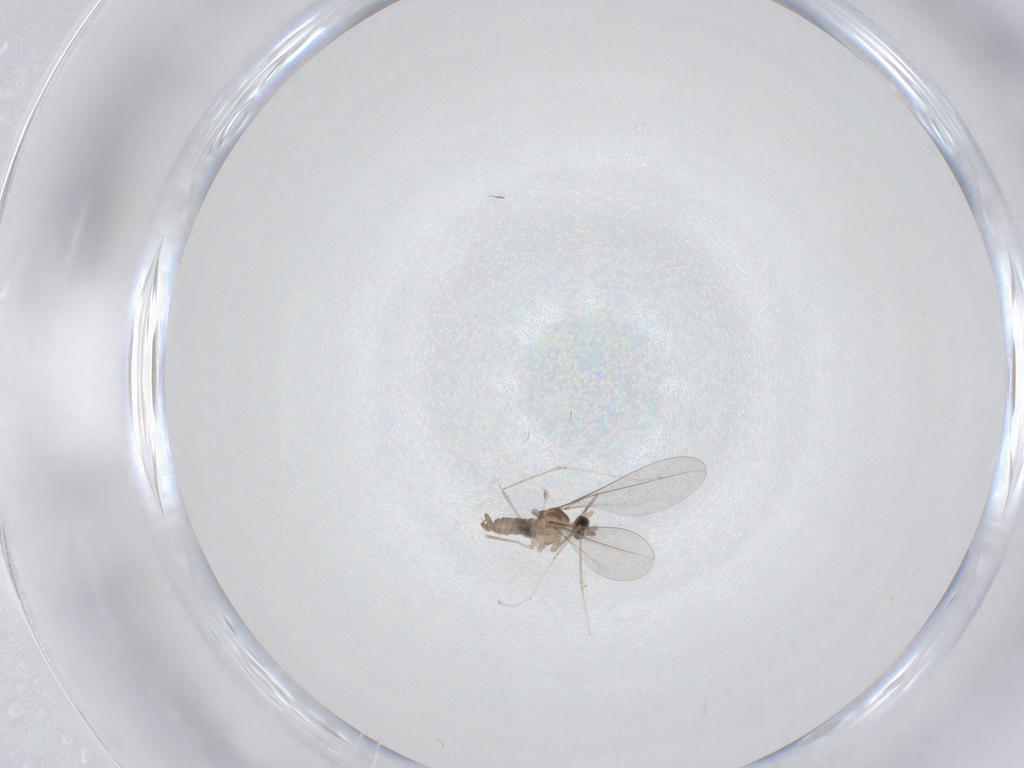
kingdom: Animalia
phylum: Arthropoda
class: Insecta
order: Diptera
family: Cecidomyiidae
